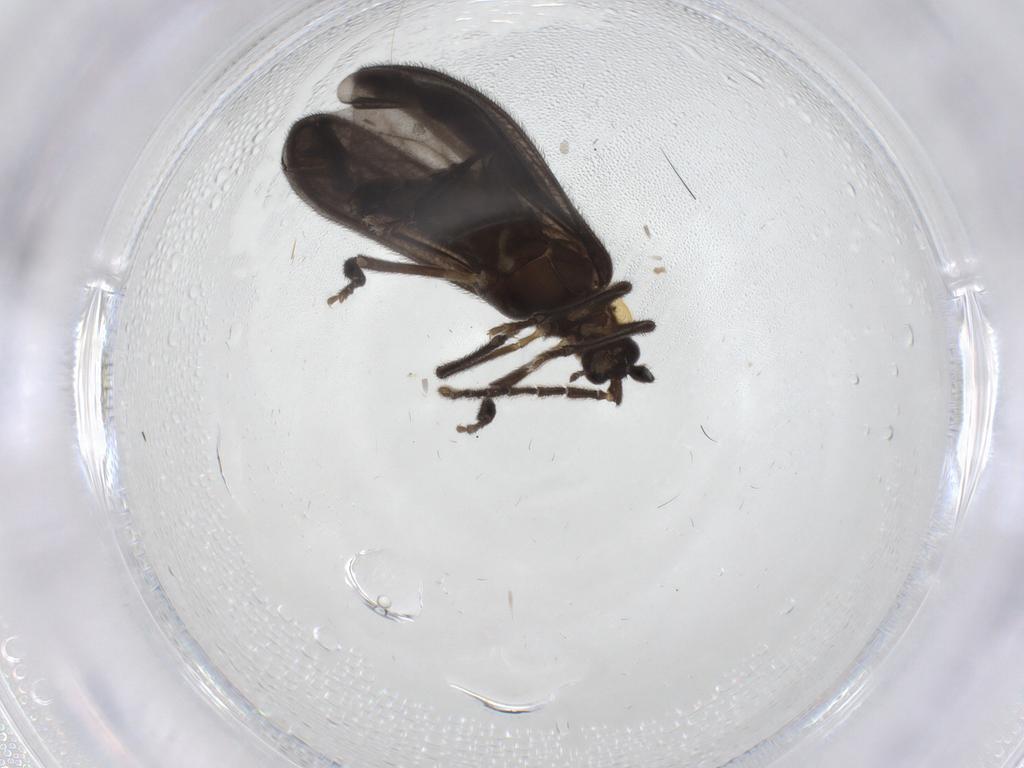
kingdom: Animalia
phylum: Arthropoda
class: Insecta
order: Coleoptera
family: Lycidae
